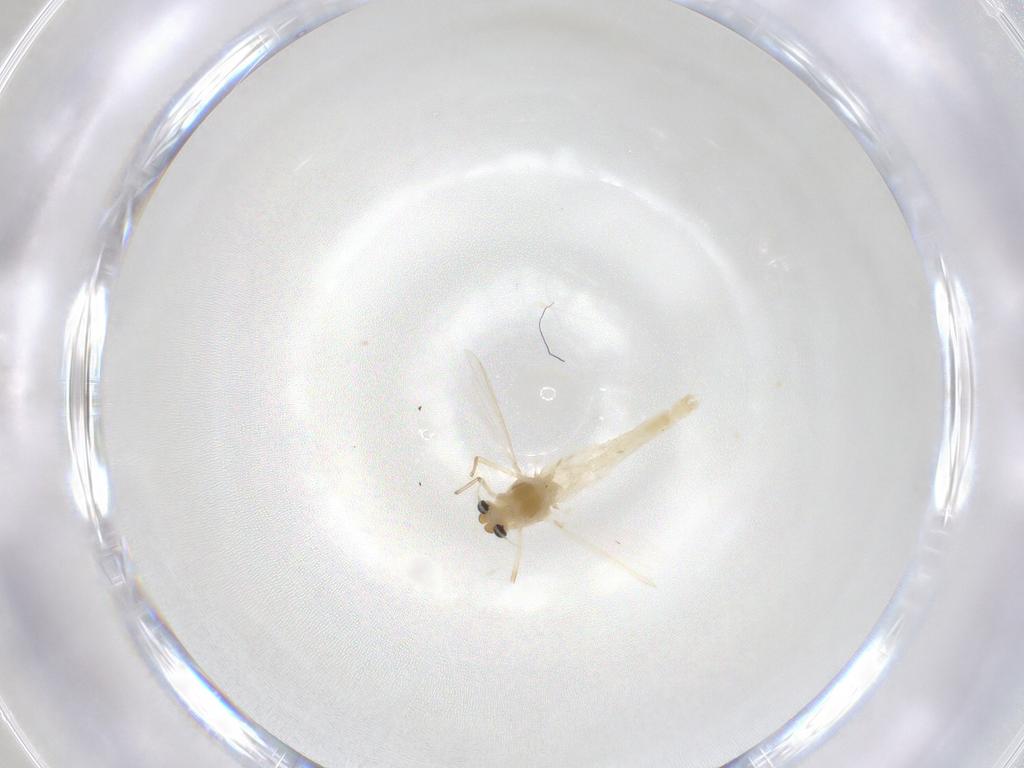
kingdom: Animalia
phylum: Arthropoda
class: Insecta
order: Diptera
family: Chironomidae
